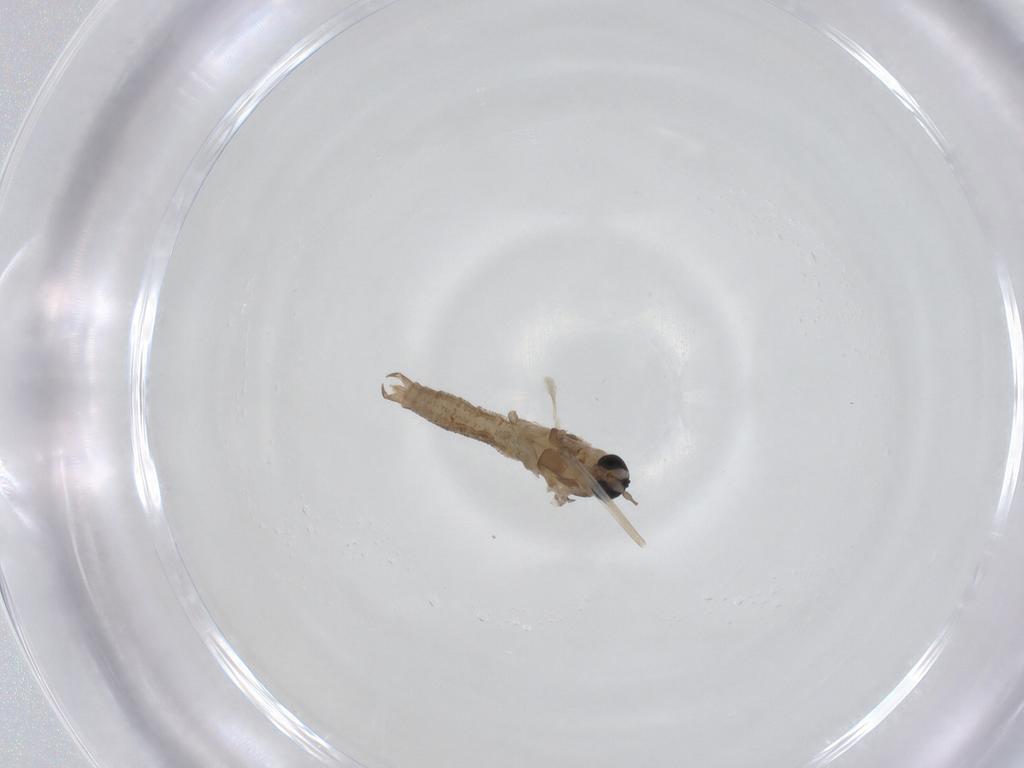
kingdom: Animalia
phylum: Arthropoda
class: Insecta
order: Diptera
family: Cecidomyiidae
